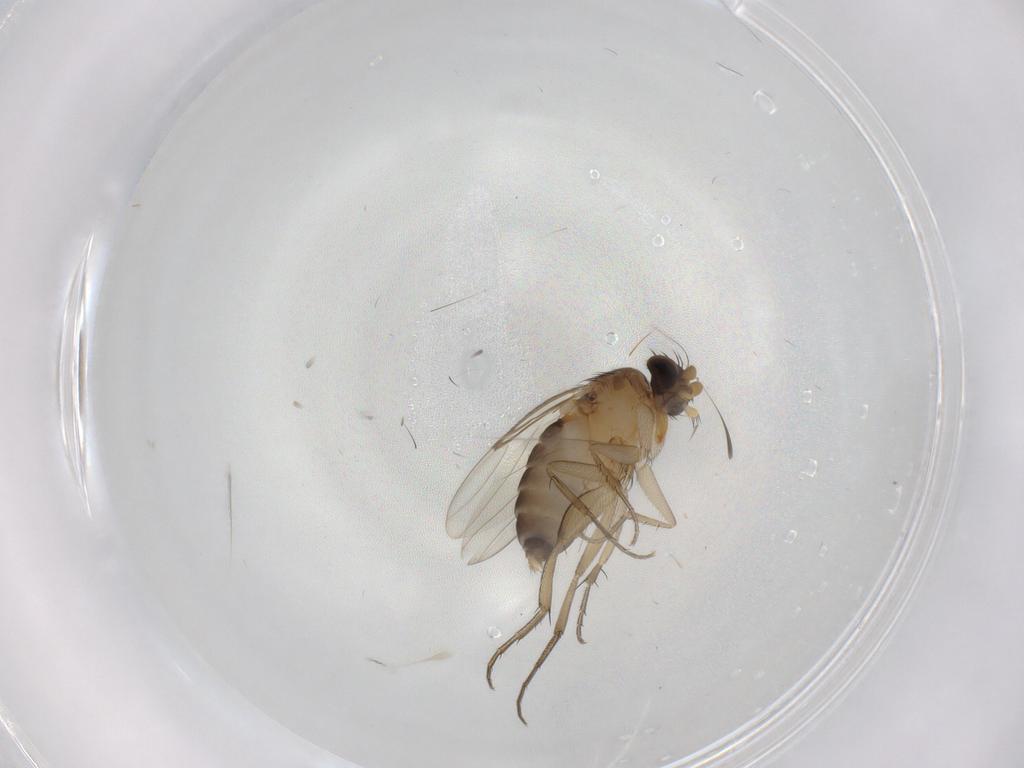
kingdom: Animalia
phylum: Arthropoda
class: Insecta
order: Diptera
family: Phoridae
